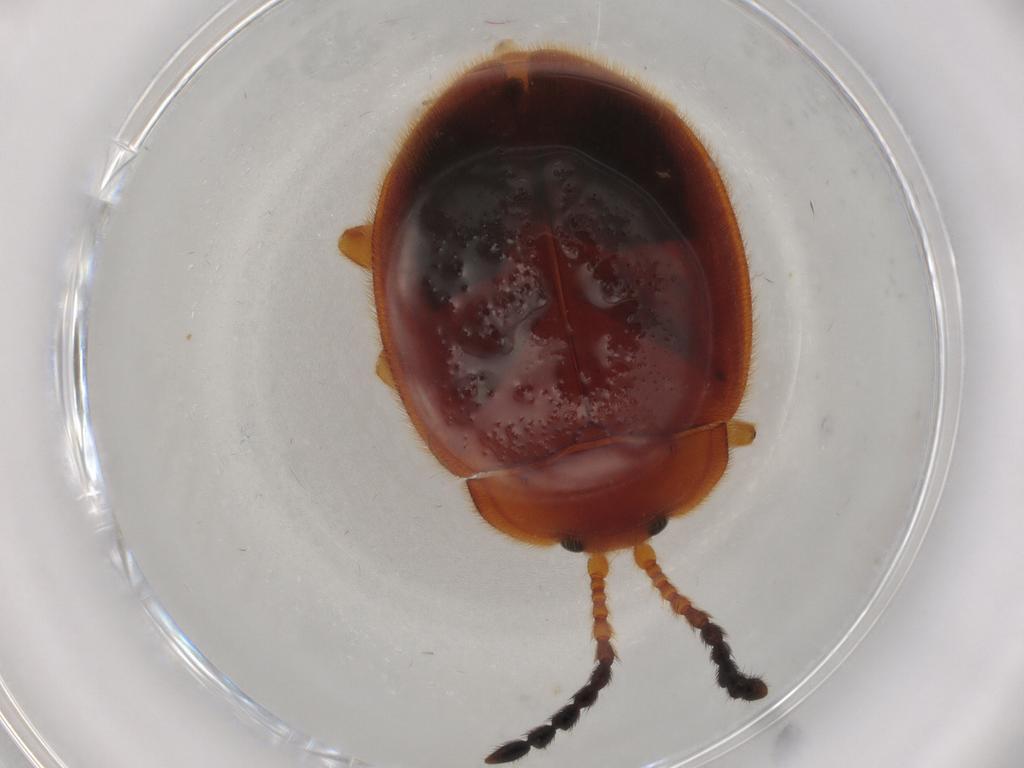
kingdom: Animalia
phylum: Arthropoda
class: Insecta
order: Coleoptera
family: Endomychidae
